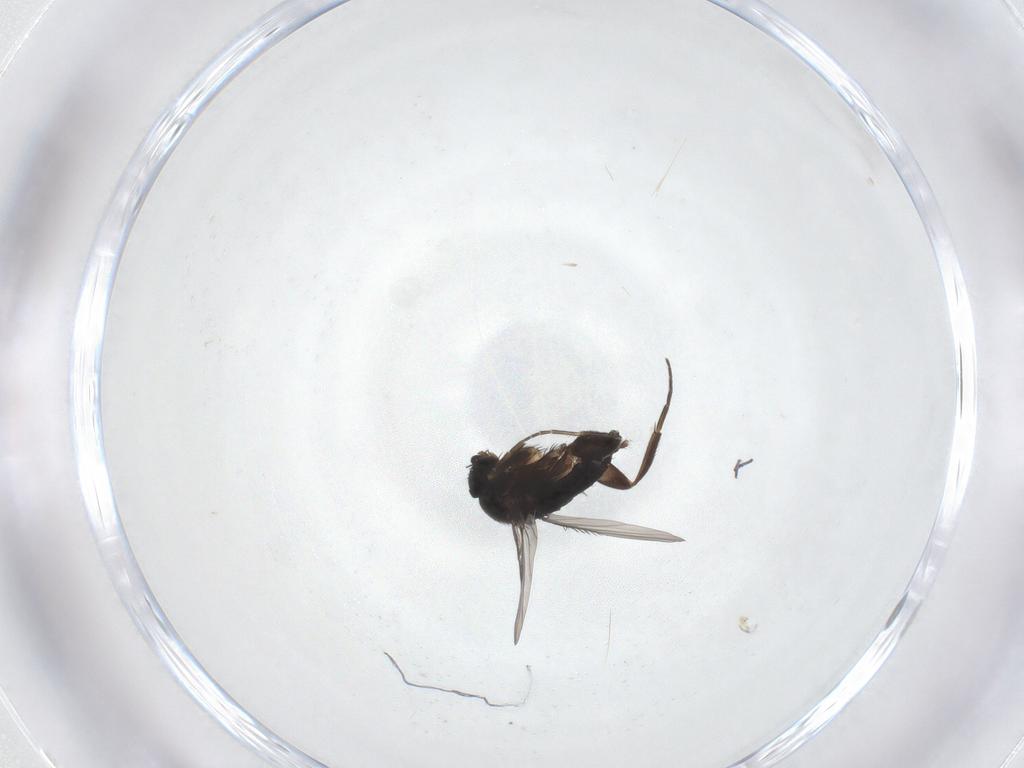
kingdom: Animalia
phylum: Arthropoda
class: Insecta
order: Diptera
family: Phoridae
